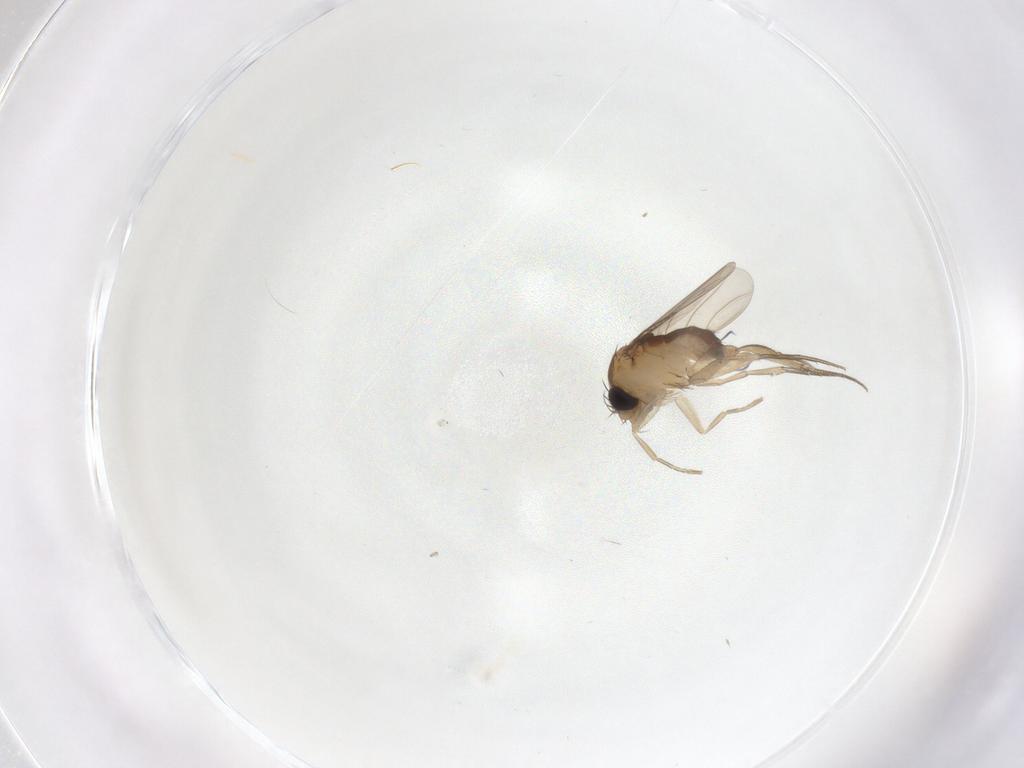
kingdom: Animalia
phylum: Arthropoda
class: Insecta
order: Diptera
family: Phoridae
